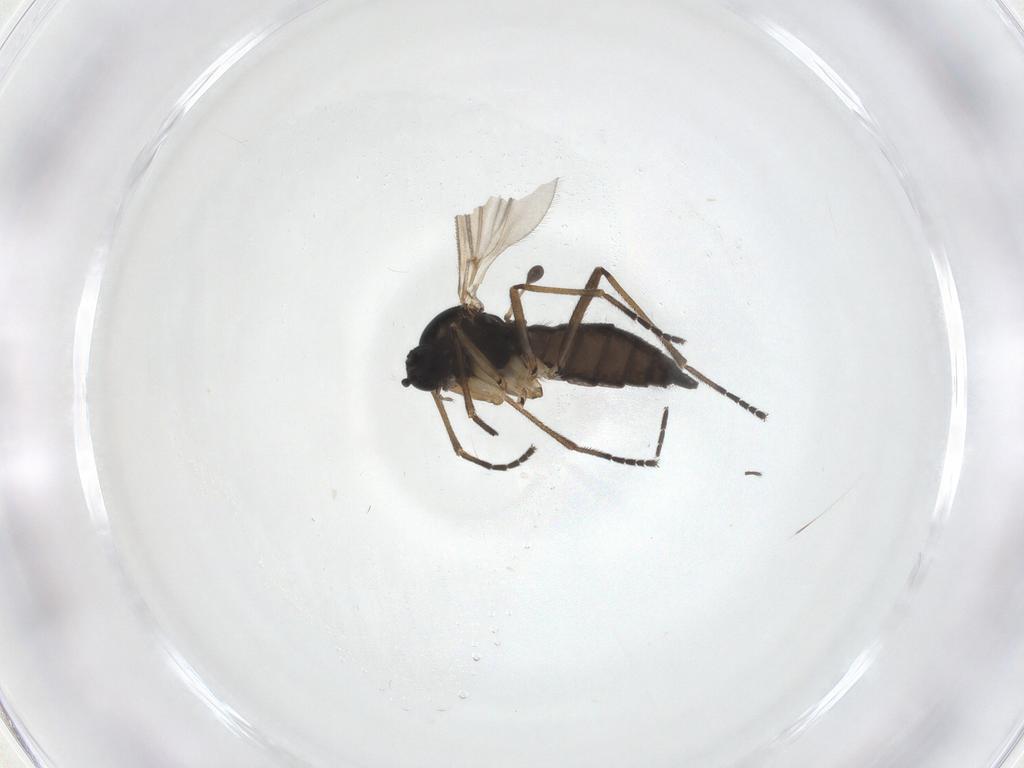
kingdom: Animalia
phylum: Arthropoda
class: Insecta
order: Diptera
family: Sciaridae
